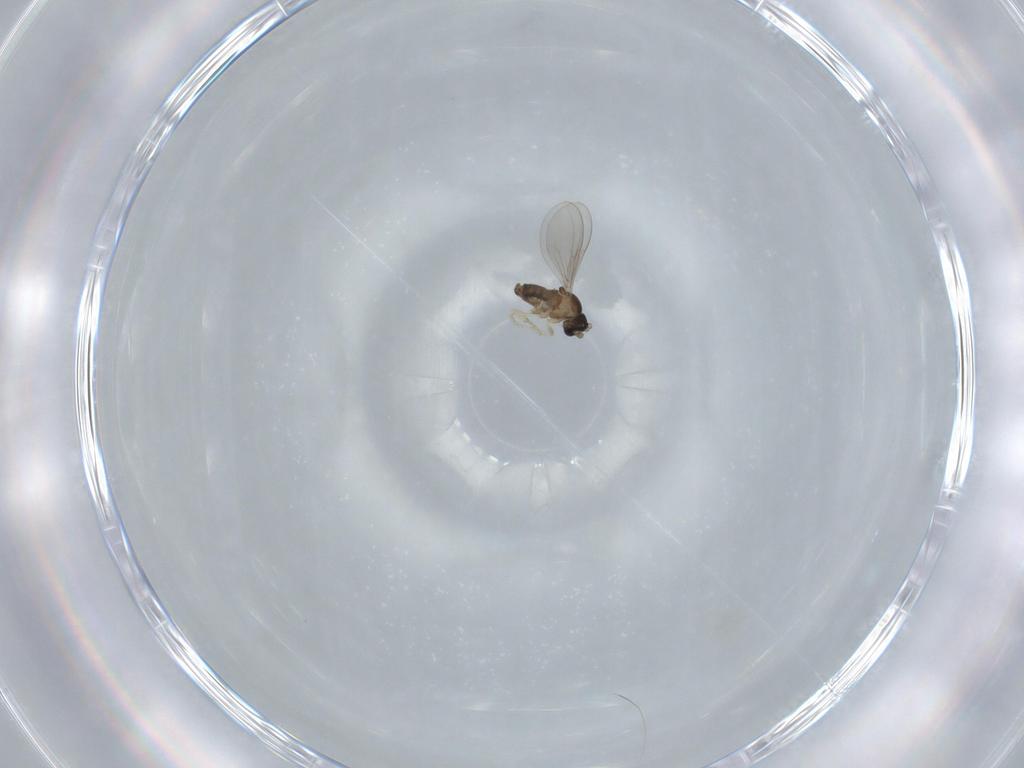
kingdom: Animalia
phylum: Arthropoda
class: Insecta
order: Diptera
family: Cecidomyiidae
